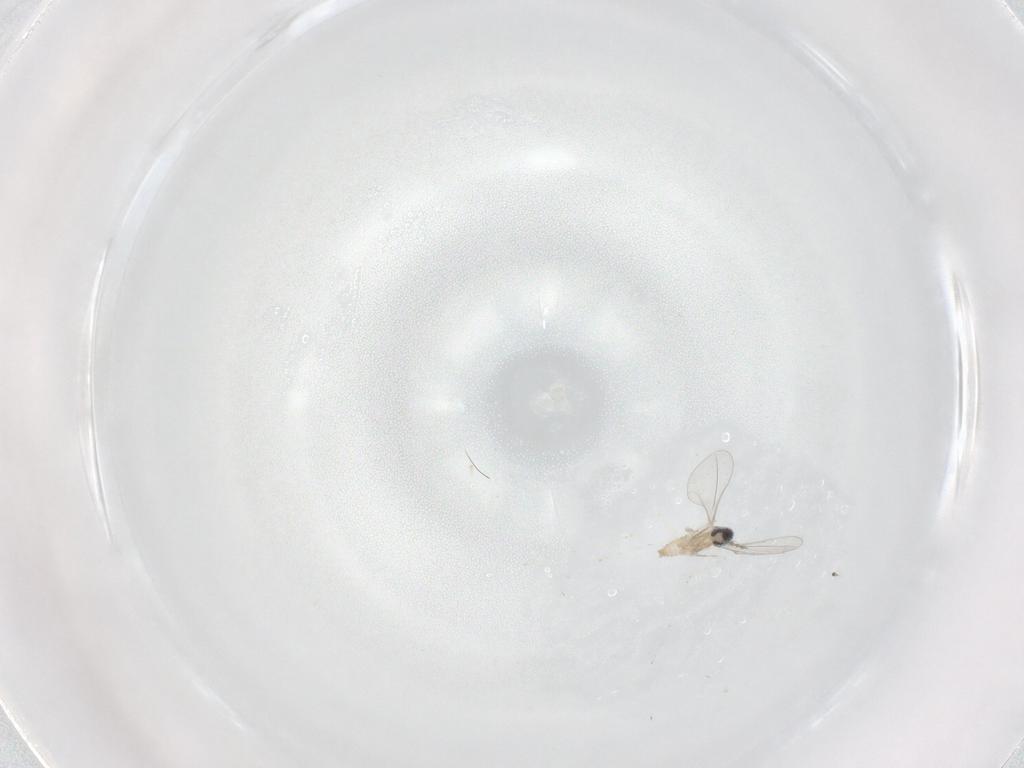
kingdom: Animalia
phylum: Arthropoda
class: Insecta
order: Diptera
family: Ceratopogonidae
